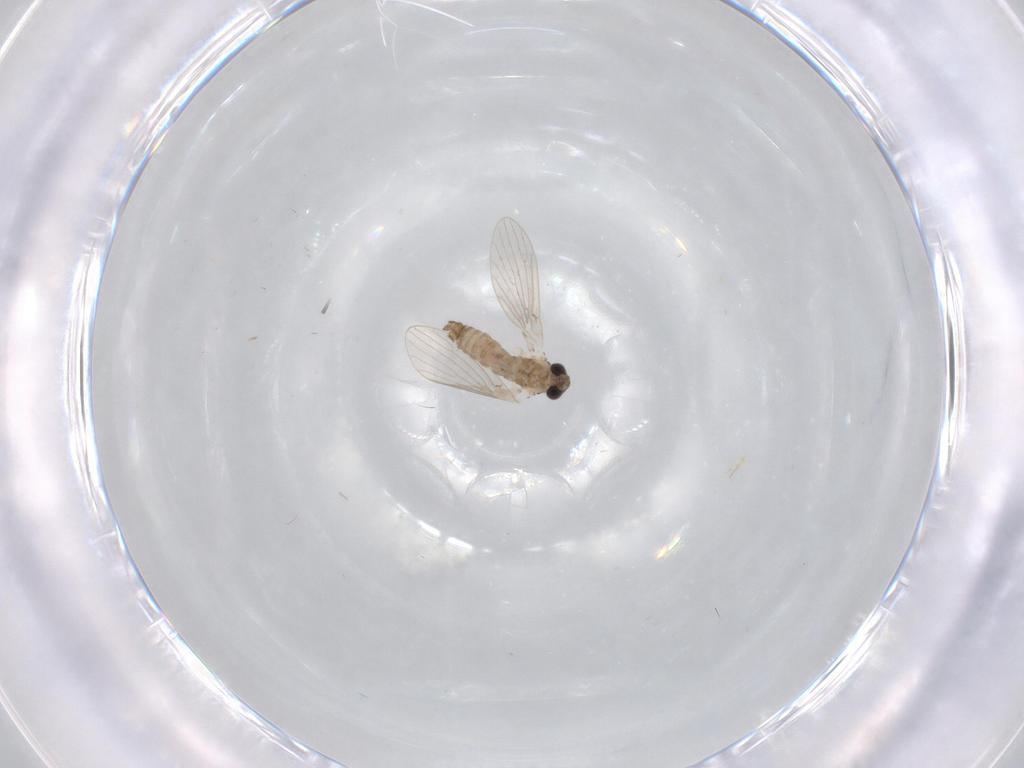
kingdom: Animalia
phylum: Arthropoda
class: Insecta
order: Diptera
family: Psychodidae
